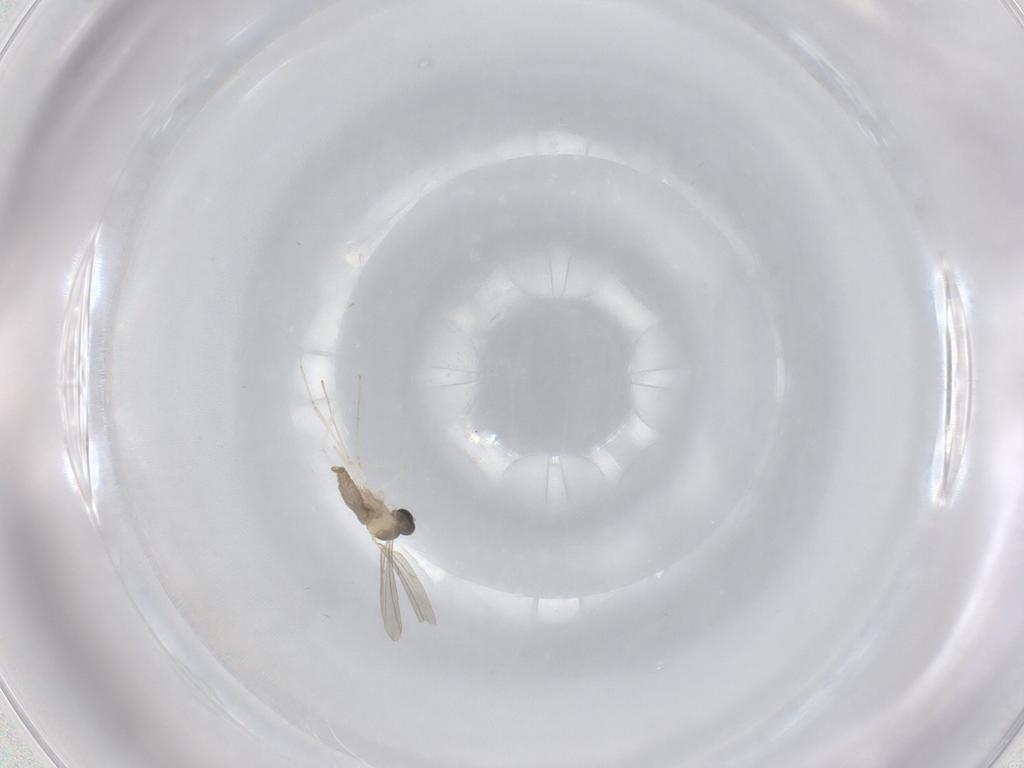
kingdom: Animalia
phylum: Arthropoda
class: Insecta
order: Diptera
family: Cecidomyiidae
